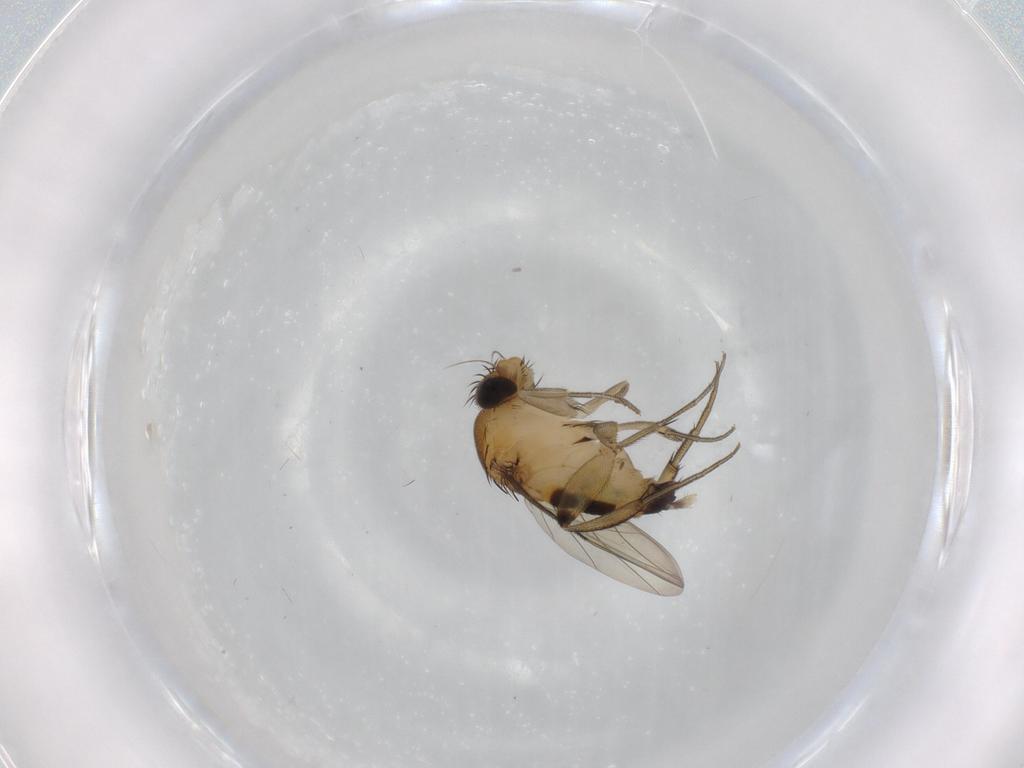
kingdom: Animalia
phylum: Arthropoda
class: Insecta
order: Diptera
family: Phoridae
